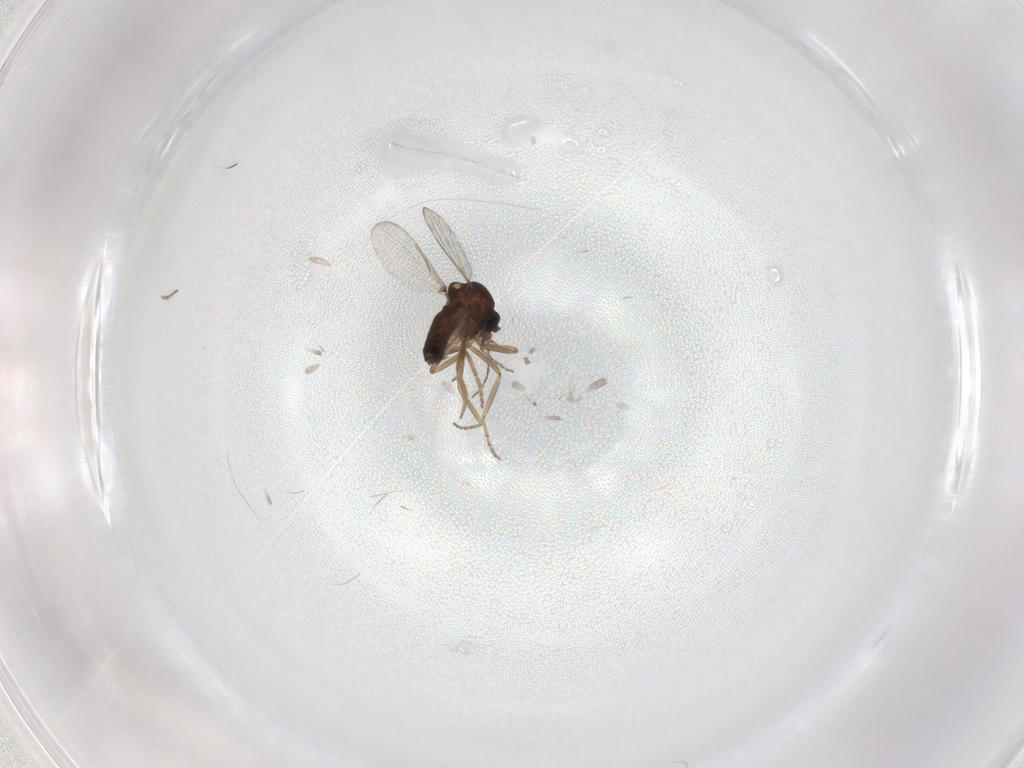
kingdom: Animalia
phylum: Arthropoda
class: Insecta
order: Diptera
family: Ceratopogonidae
